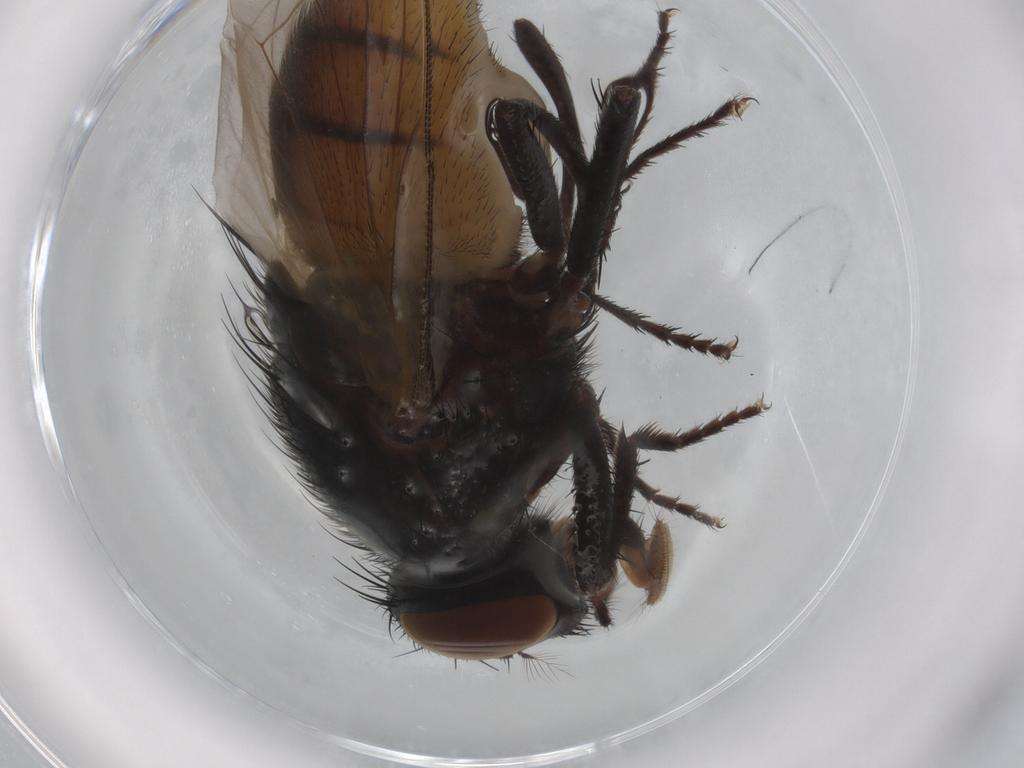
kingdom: Animalia
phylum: Arthropoda
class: Insecta
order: Diptera
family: Muscidae
